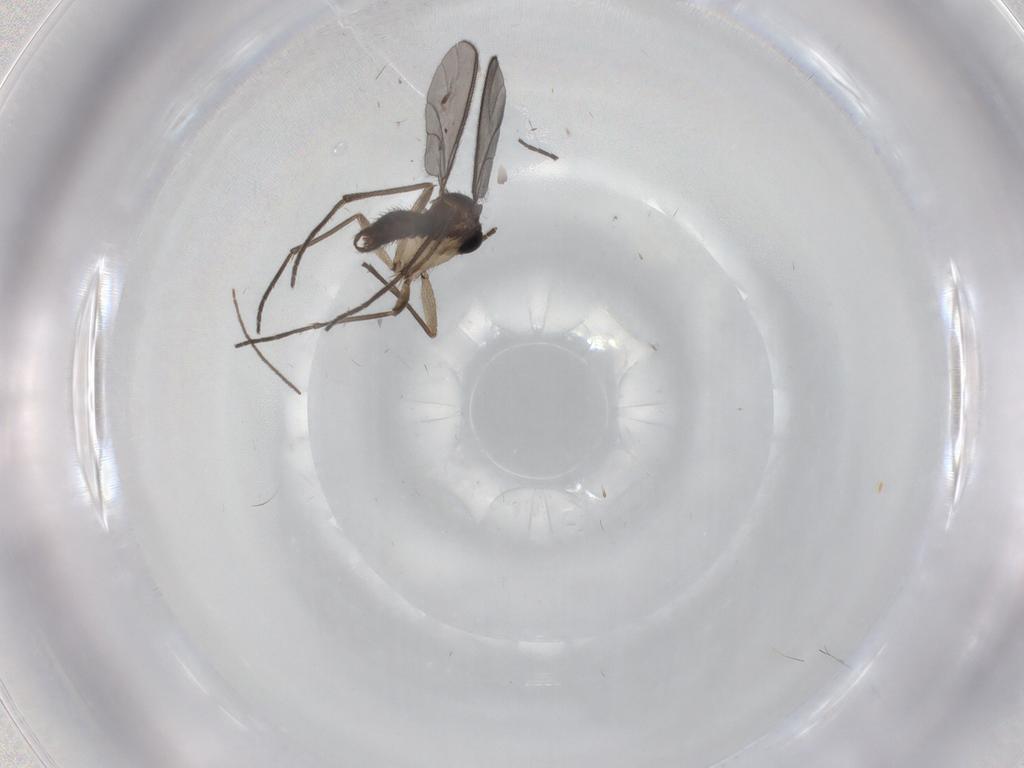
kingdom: Animalia
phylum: Arthropoda
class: Insecta
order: Diptera
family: Sciaridae
